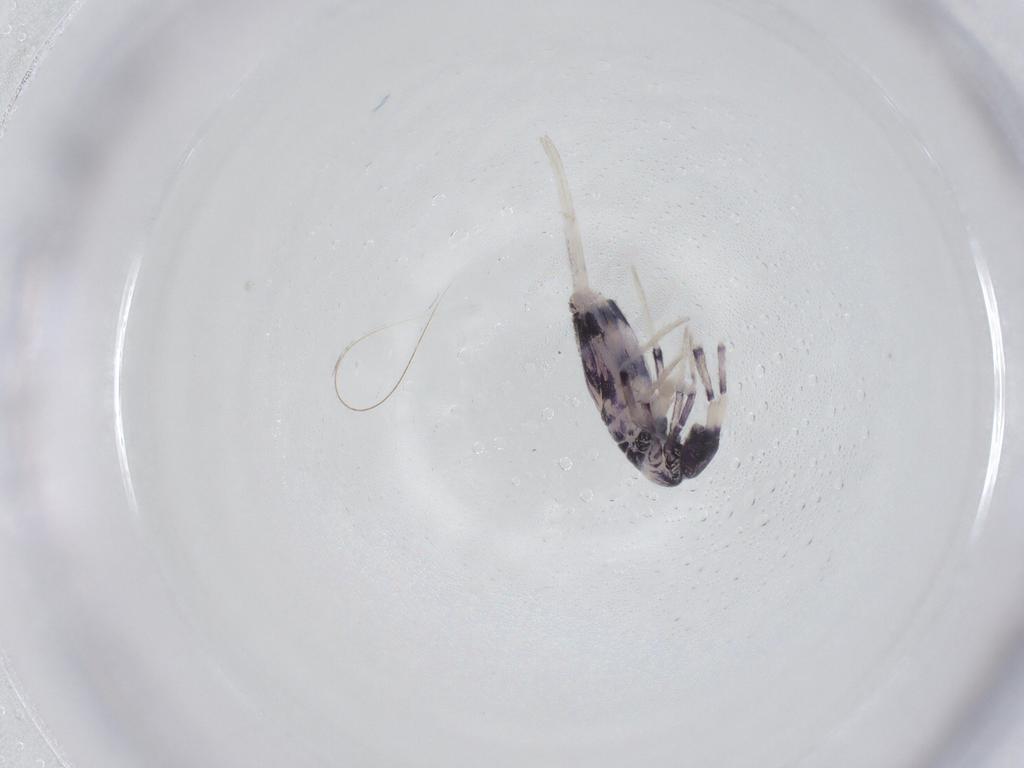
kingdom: Animalia
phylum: Arthropoda
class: Collembola
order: Entomobryomorpha
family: Entomobryidae
